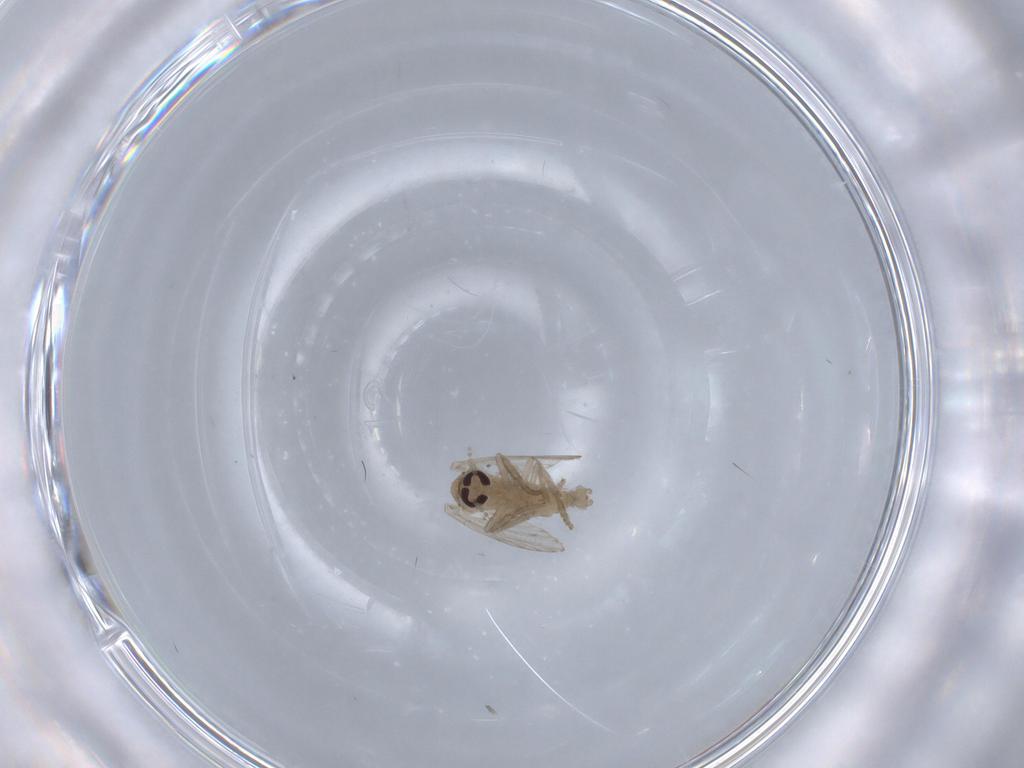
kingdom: Animalia
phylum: Arthropoda
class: Insecta
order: Diptera
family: Psychodidae
